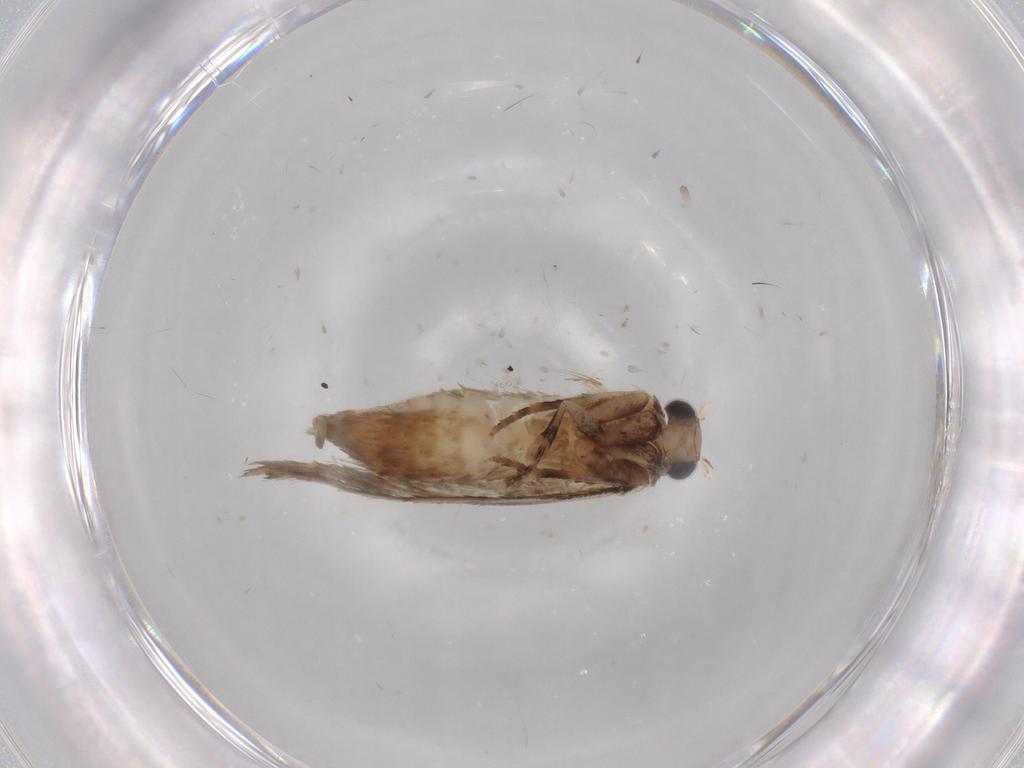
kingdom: Animalia
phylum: Arthropoda
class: Insecta
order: Lepidoptera
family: Tineidae
